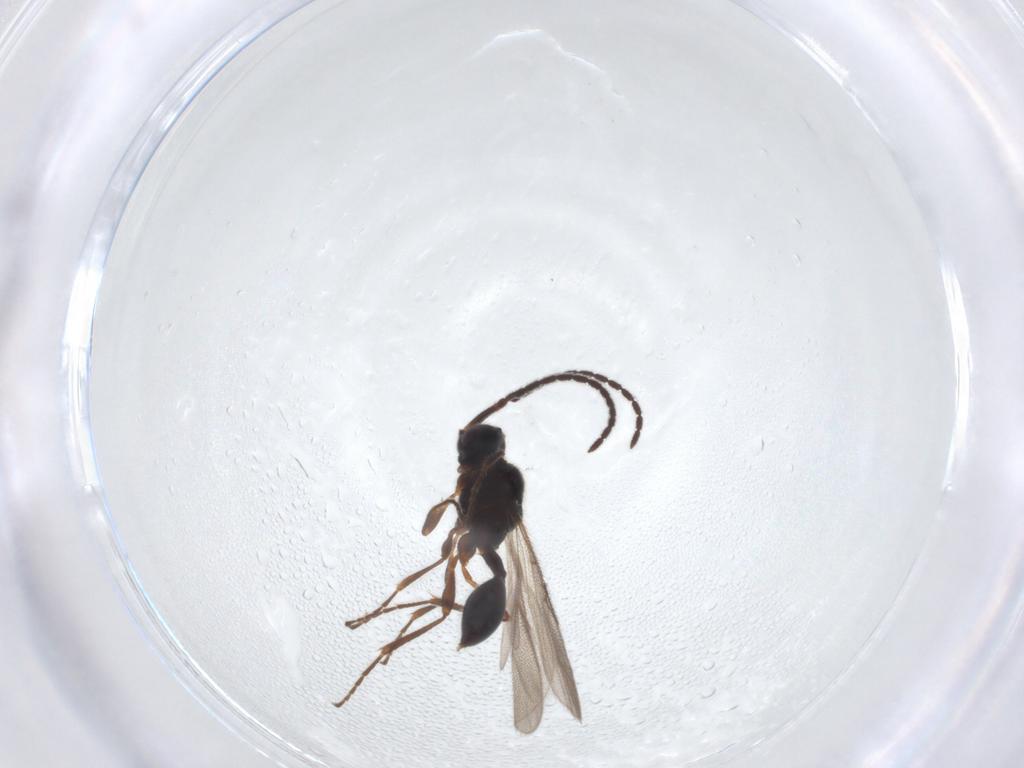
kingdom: Animalia
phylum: Arthropoda
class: Insecta
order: Hymenoptera
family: Diapriidae
